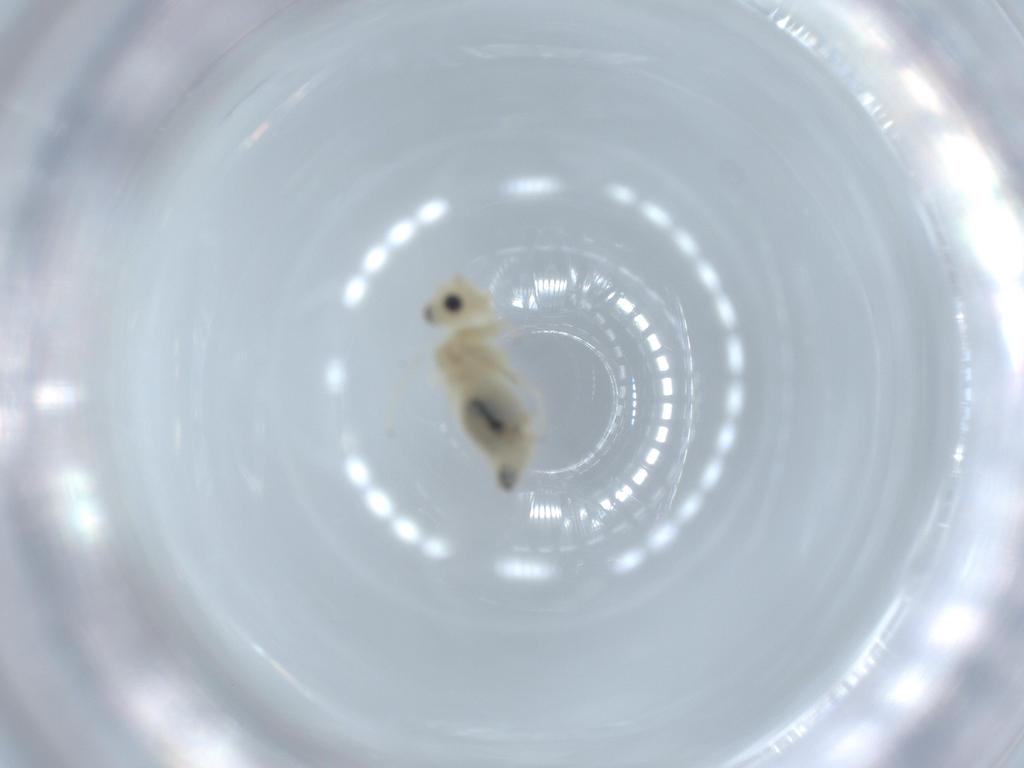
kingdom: Animalia
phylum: Arthropoda
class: Insecta
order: Psocodea
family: Caeciliusidae
